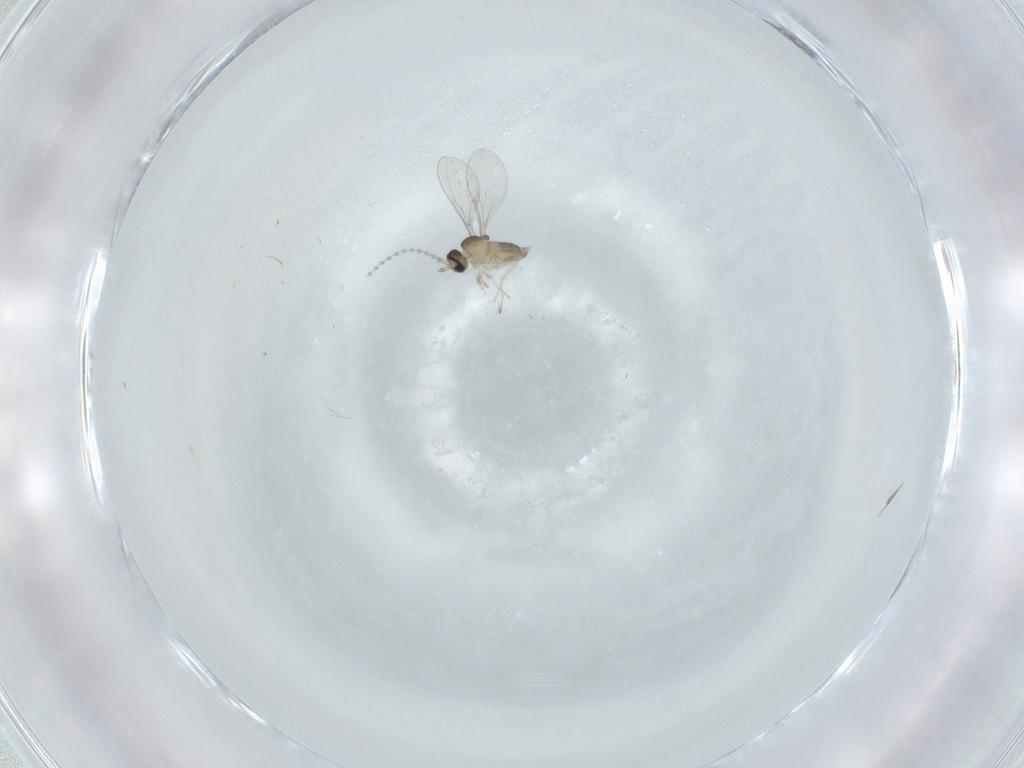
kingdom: Animalia
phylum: Arthropoda
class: Insecta
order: Diptera
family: Cecidomyiidae
